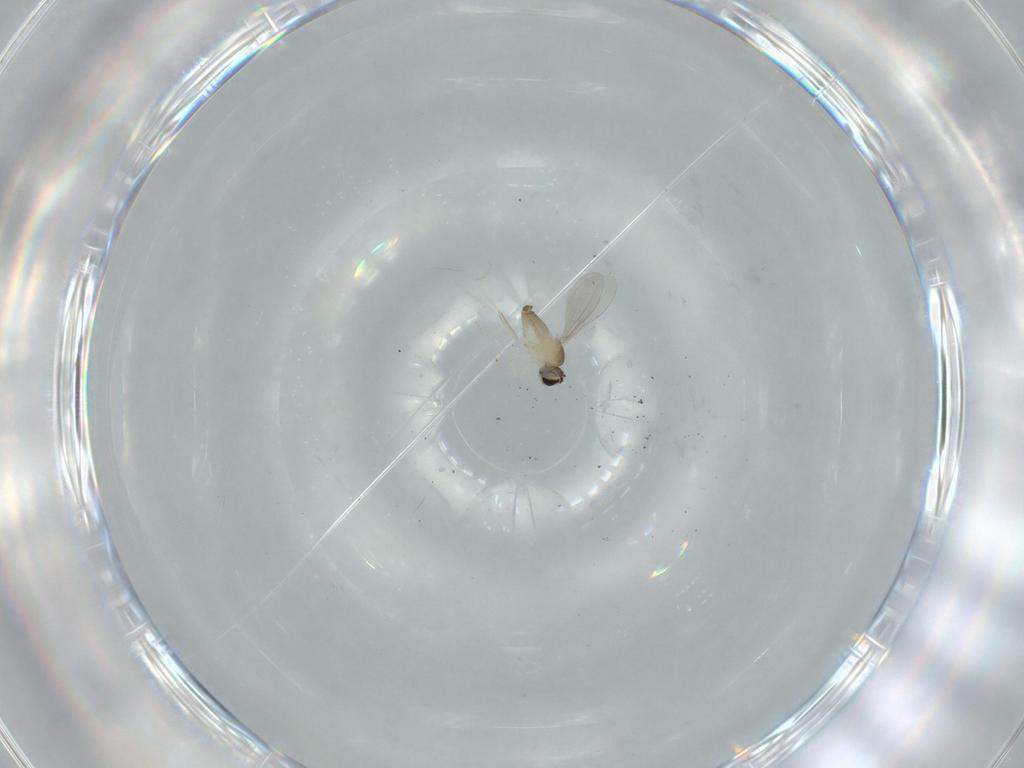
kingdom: Animalia
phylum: Arthropoda
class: Insecta
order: Diptera
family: Cecidomyiidae
